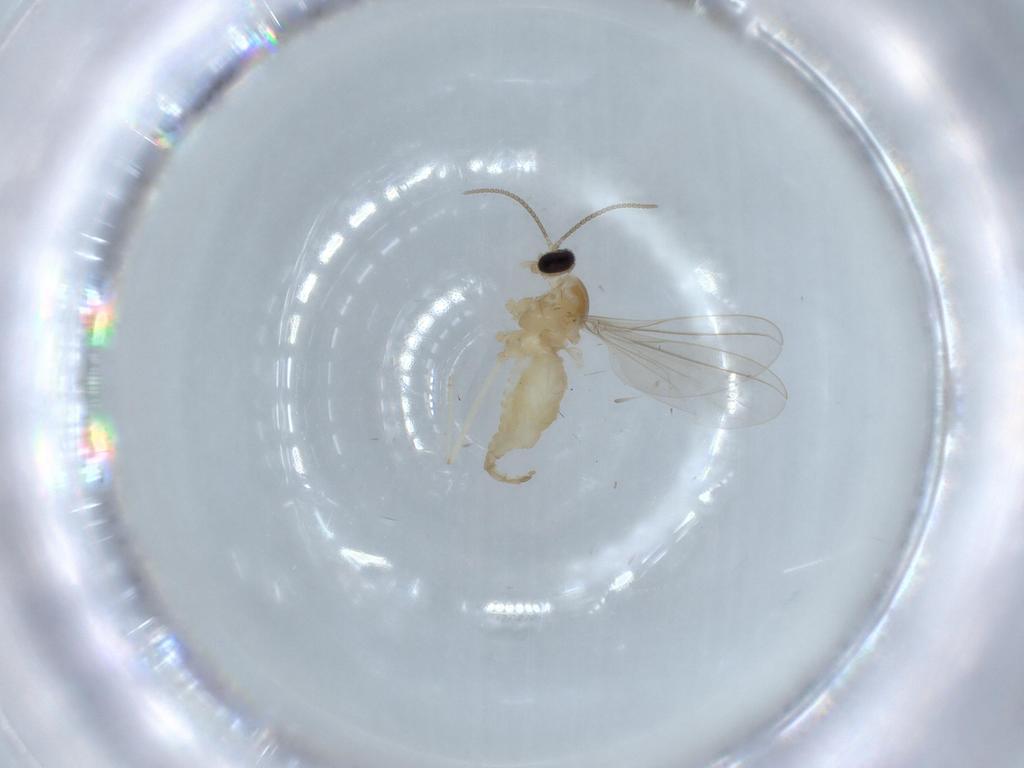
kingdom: Animalia
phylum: Arthropoda
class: Insecta
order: Diptera
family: Cecidomyiidae
